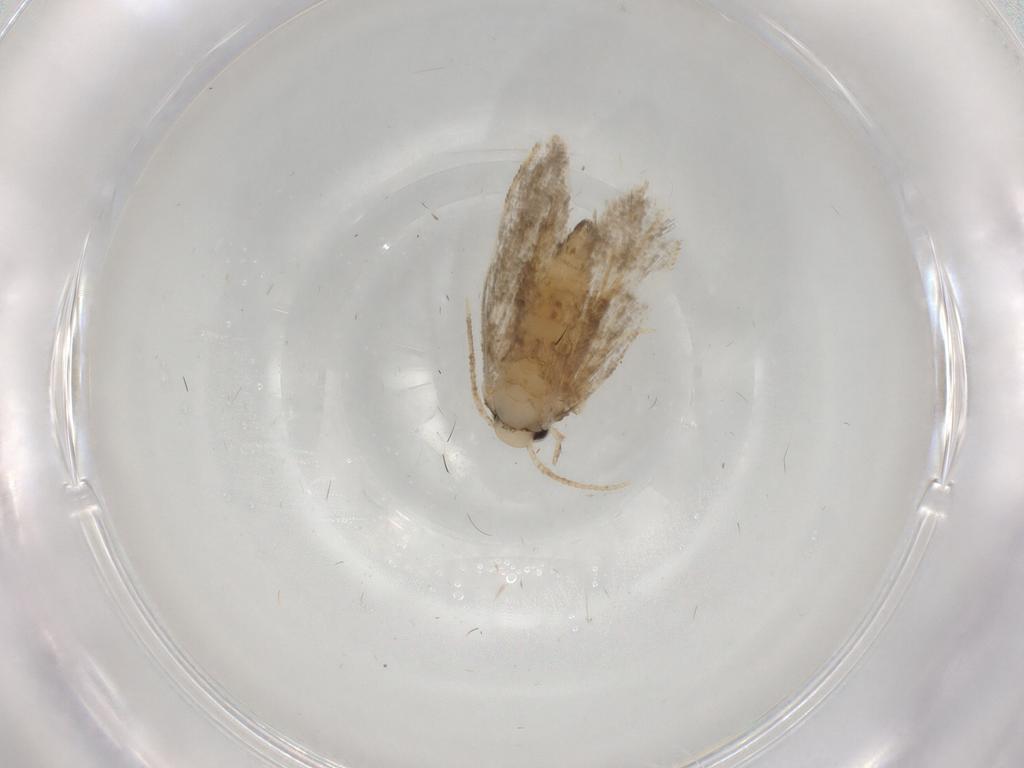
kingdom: Animalia
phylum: Arthropoda
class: Insecta
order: Lepidoptera
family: Psychidae
